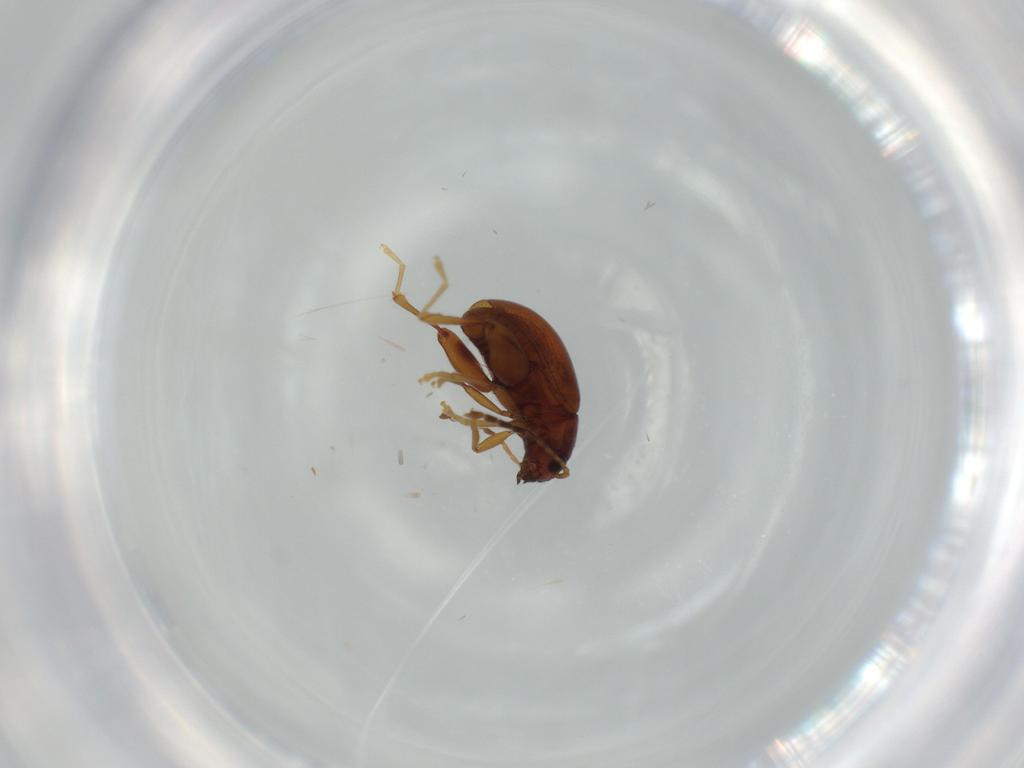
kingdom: Animalia
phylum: Arthropoda
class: Insecta
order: Coleoptera
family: Chrysomelidae
